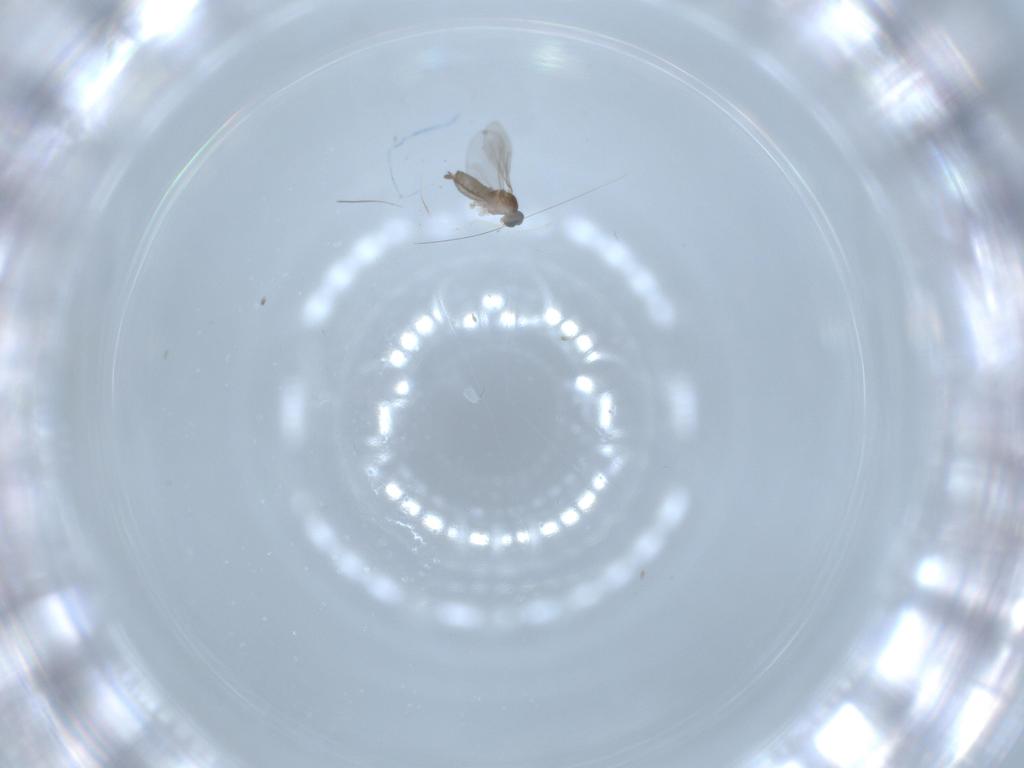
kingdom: Animalia
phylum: Arthropoda
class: Insecta
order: Diptera
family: Cecidomyiidae
